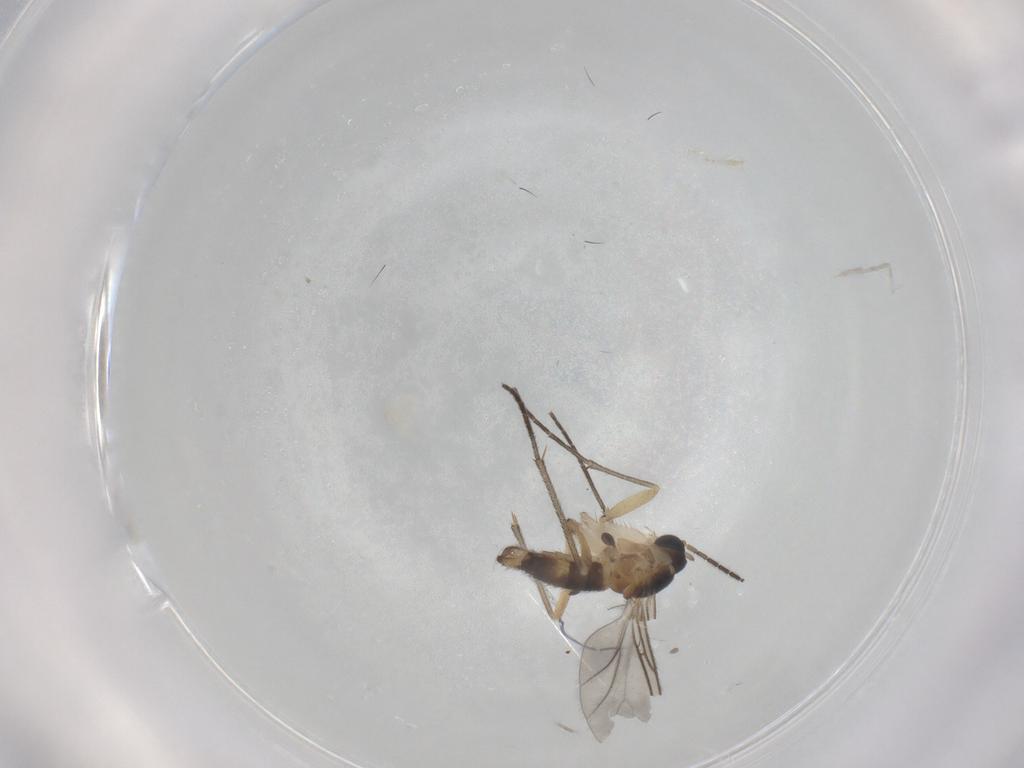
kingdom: Animalia
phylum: Arthropoda
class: Insecta
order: Diptera
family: Sciaridae
